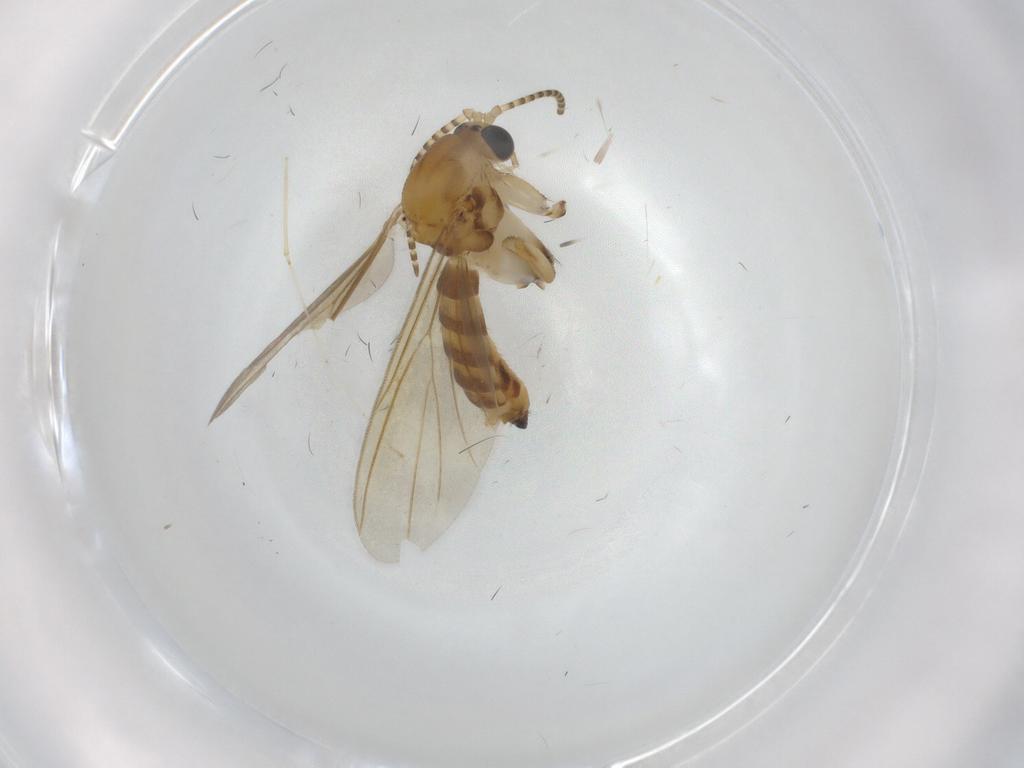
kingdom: Animalia
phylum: Arthropoda
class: Insecta
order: Diptera
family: Mycetophilidae
